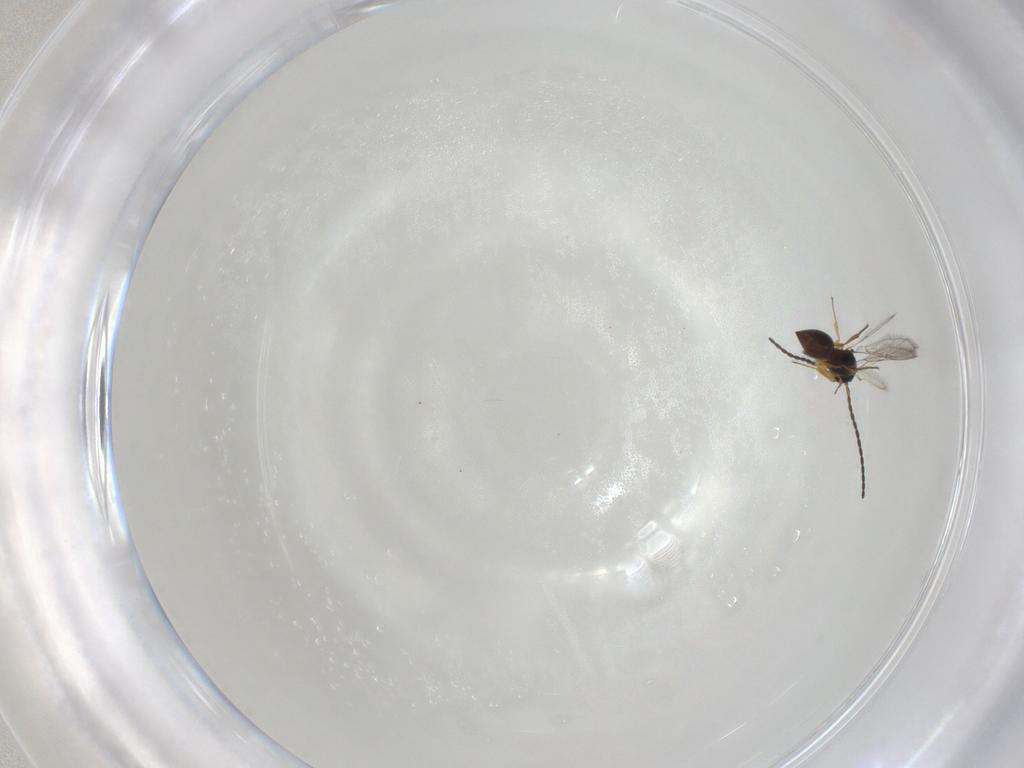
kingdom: Animalia
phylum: Arthropoda
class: Insecta
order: Hymenoptera
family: Figitidae
